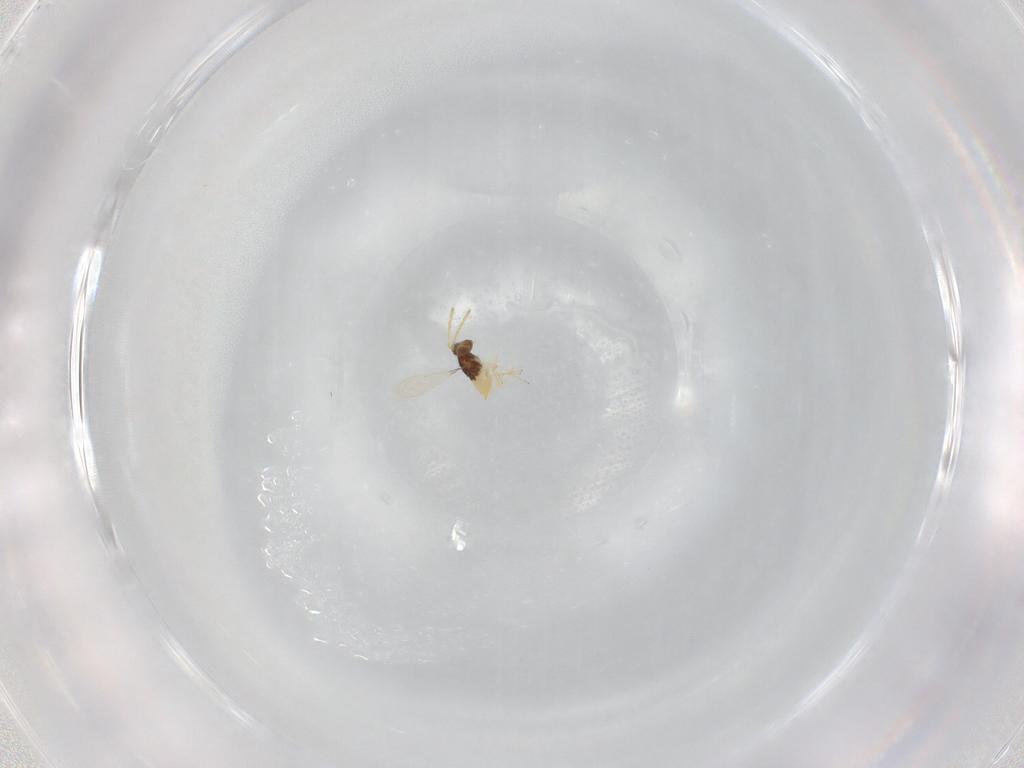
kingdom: Animalia
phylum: Arthropoda
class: Insecta
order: Hymenoptera
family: Aphelinidae
